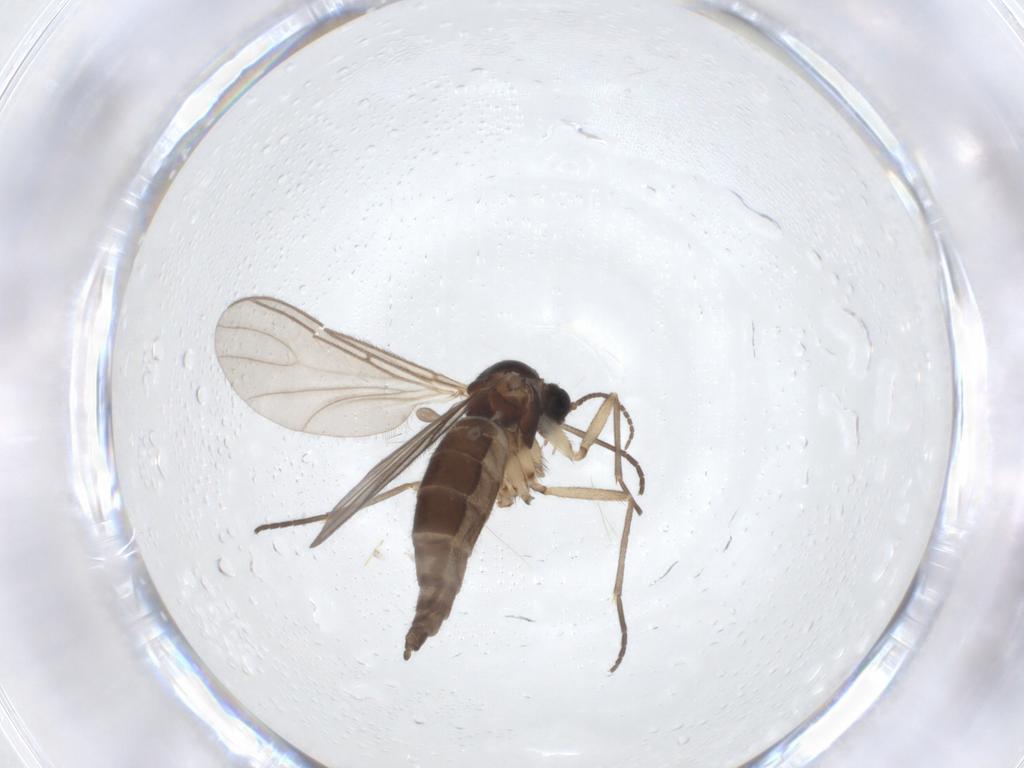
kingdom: Animalia
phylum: Arthropoda
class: Insecta
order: Diptera
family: Sciaridae
